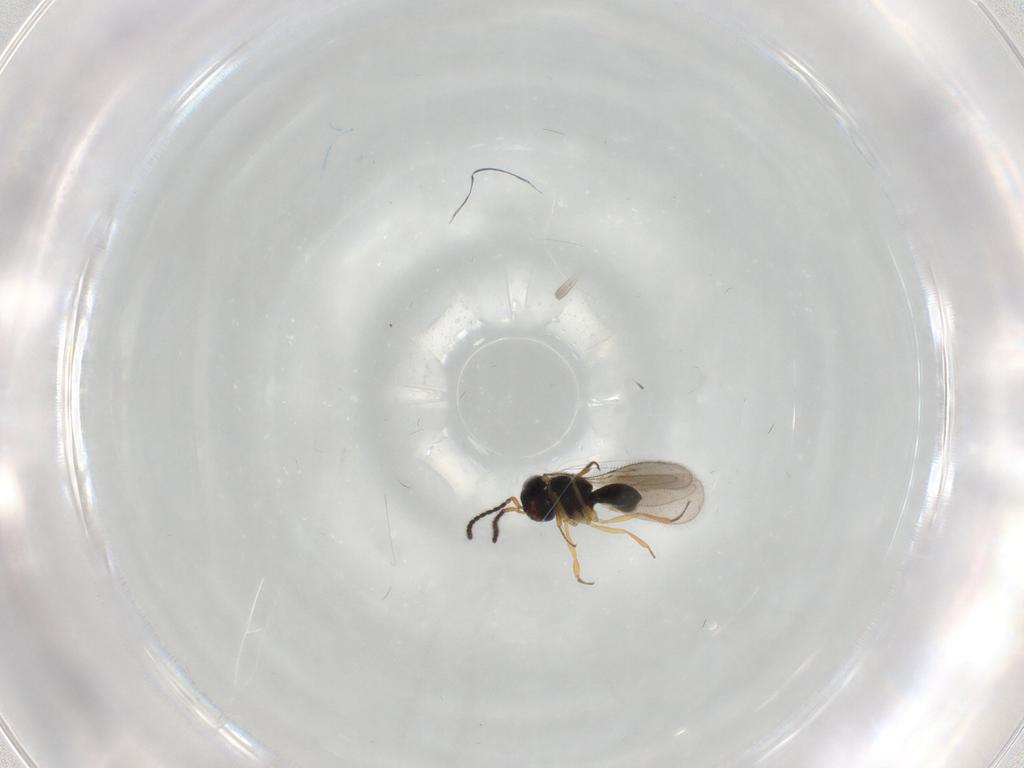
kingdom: Animalia
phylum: Arthropoda
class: Insecta
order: Hymenoptera
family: Scelionidae
